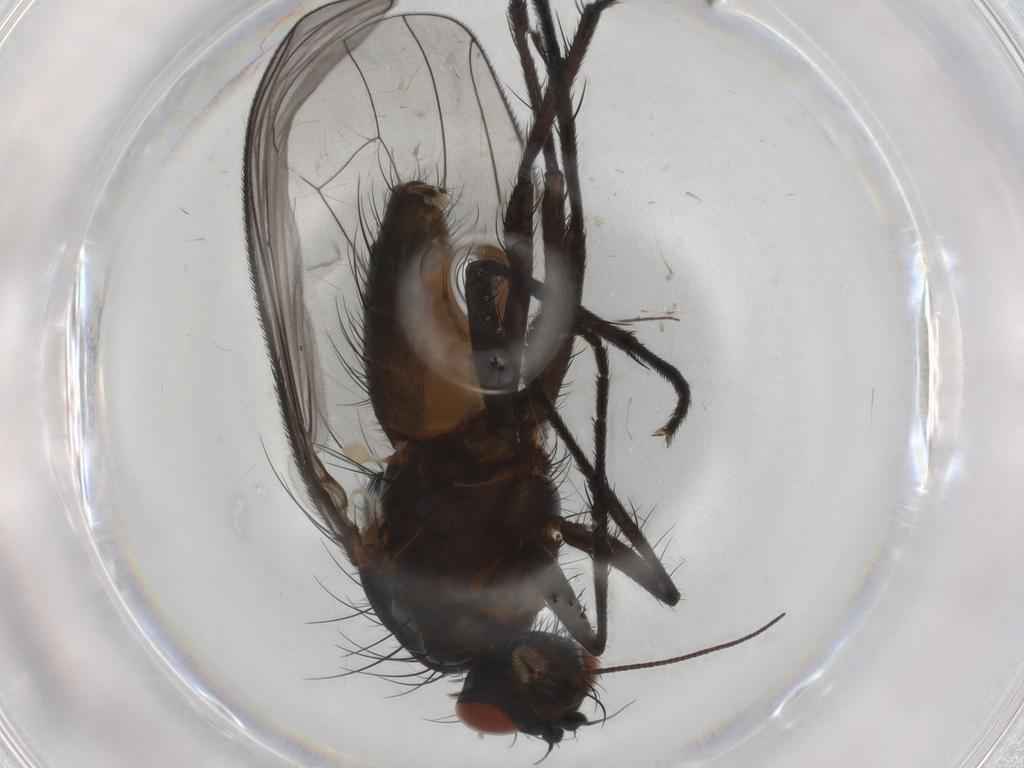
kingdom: Animalia
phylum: Arthropoda
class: Insecta
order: Diptera
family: Anthomyiidae
